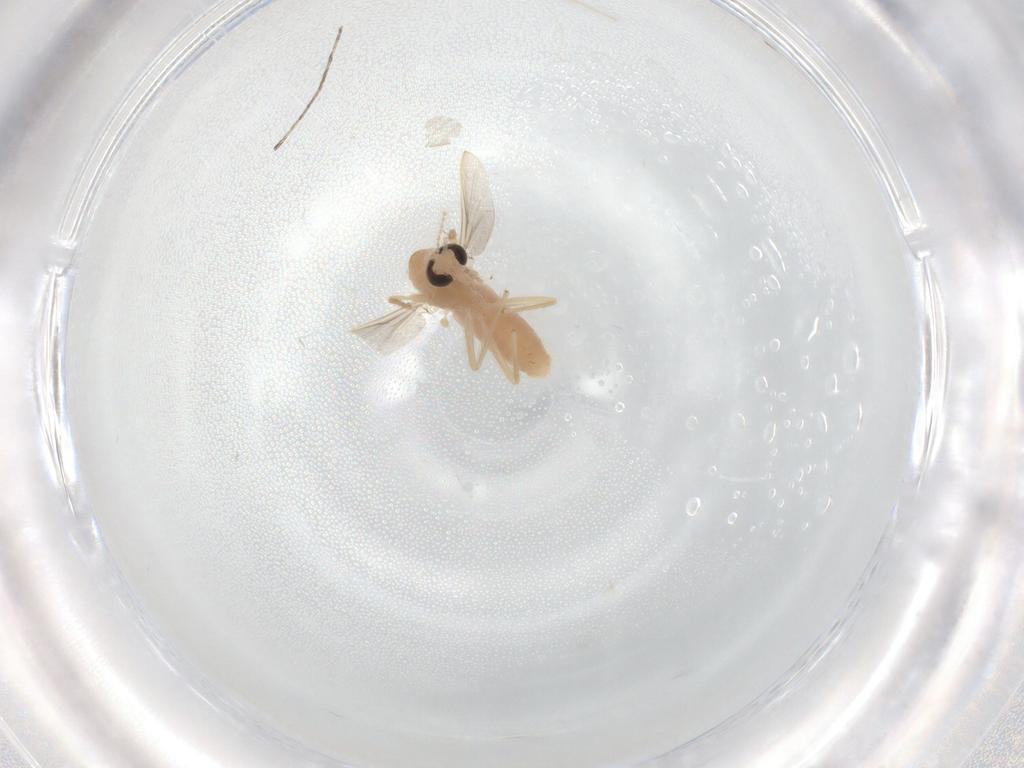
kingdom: Animalia
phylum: Arthropoda
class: Insecta
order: Diptera
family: Chironomidae
